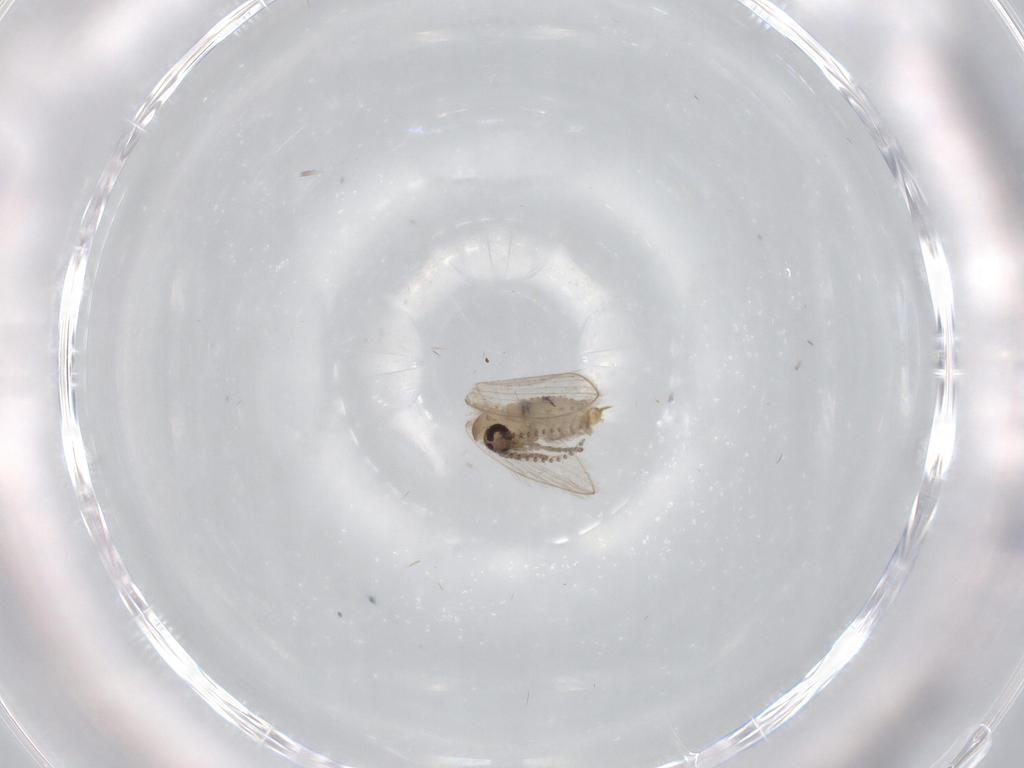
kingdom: Animalia
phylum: Arthropoda
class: Insecta
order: Diptera
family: Psychodidae
